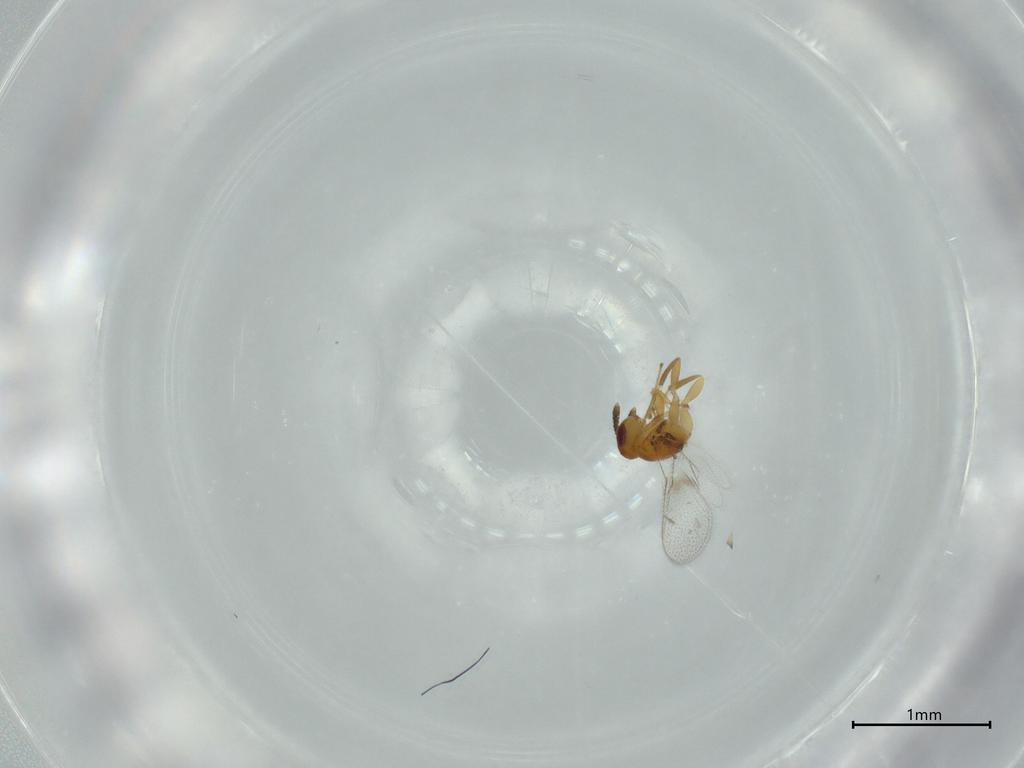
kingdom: Animalia
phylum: Arthropoda
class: Insecta
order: Hymenoptera
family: Torymidae
